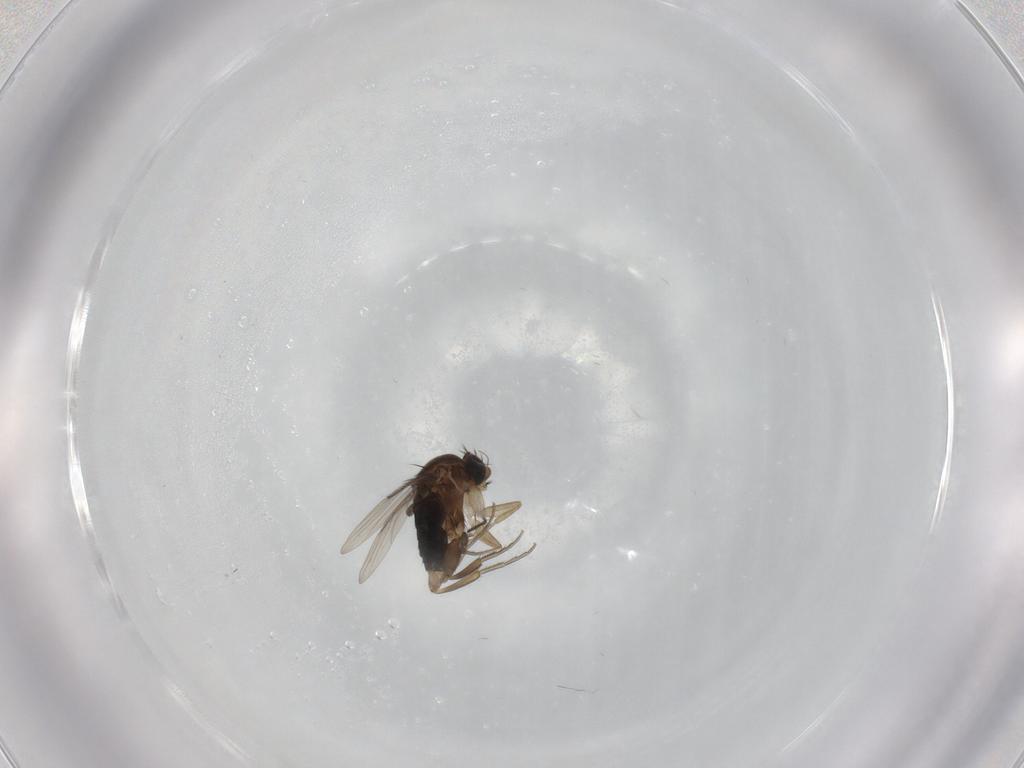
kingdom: Animalia
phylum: Arthropoda
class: Insecta
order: Diptera
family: Phoridae
